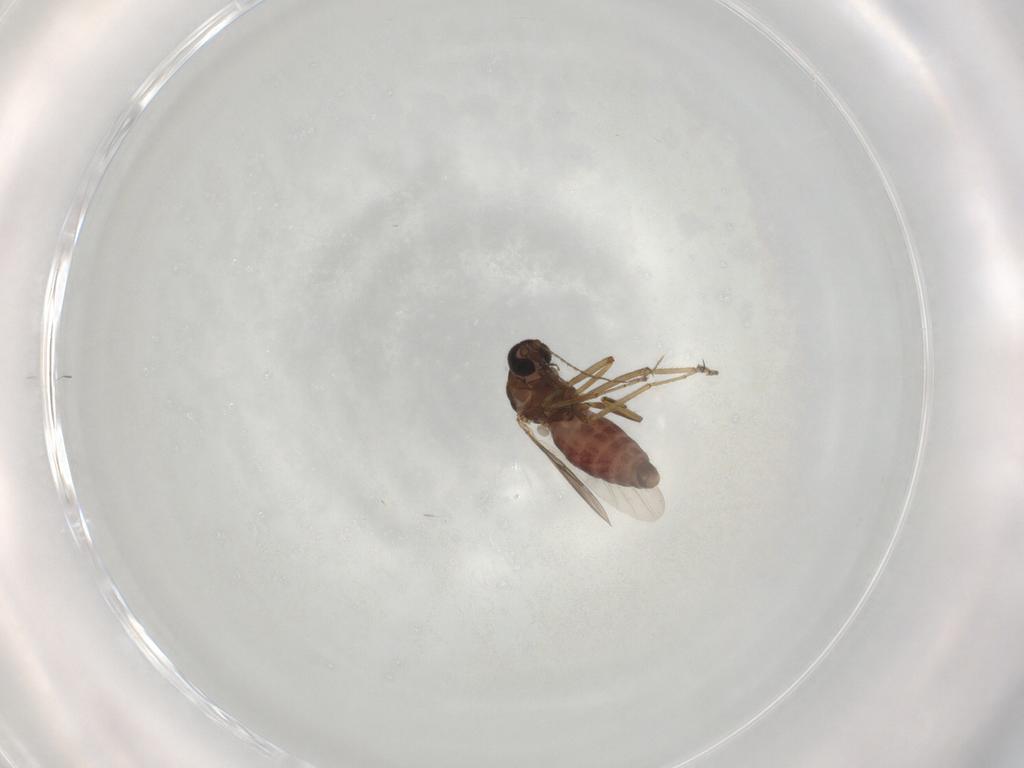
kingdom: Animalia
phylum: Arthropoda
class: Insecta
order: Diptera
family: Ceratopogonidae
